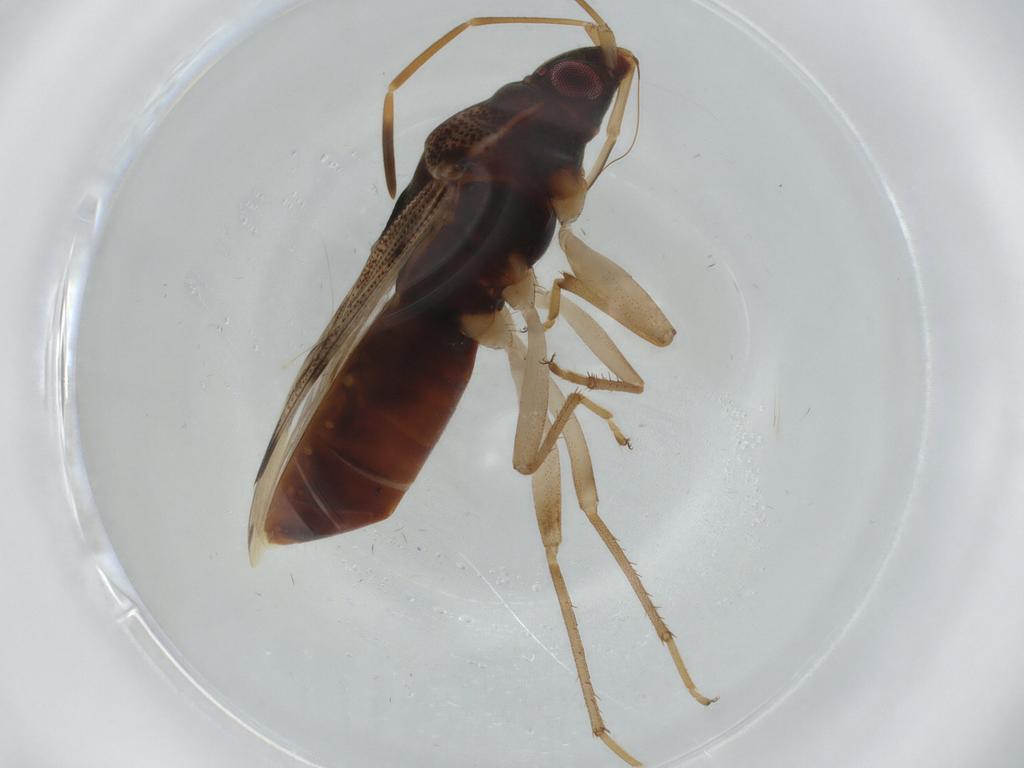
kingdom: Animalia
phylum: Arthropoda
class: Insecta
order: Hemiptera
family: Rhyparochromidae
